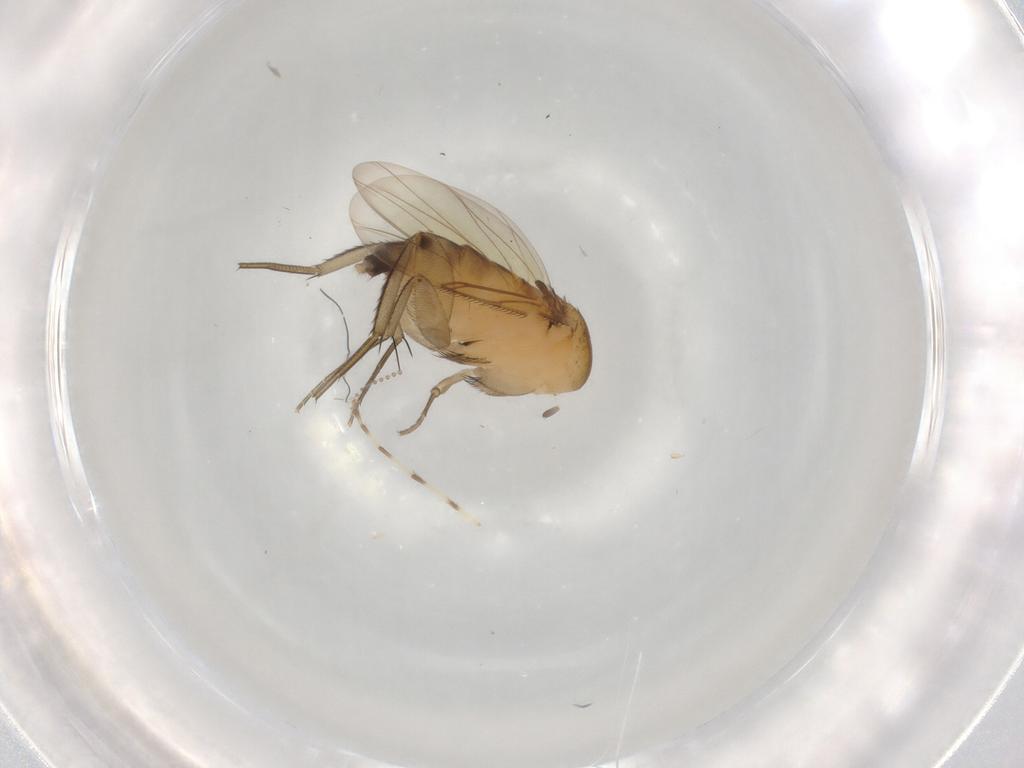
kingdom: Animalia
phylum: Arthropoda
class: Insecta
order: Diptera
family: Phoridae
